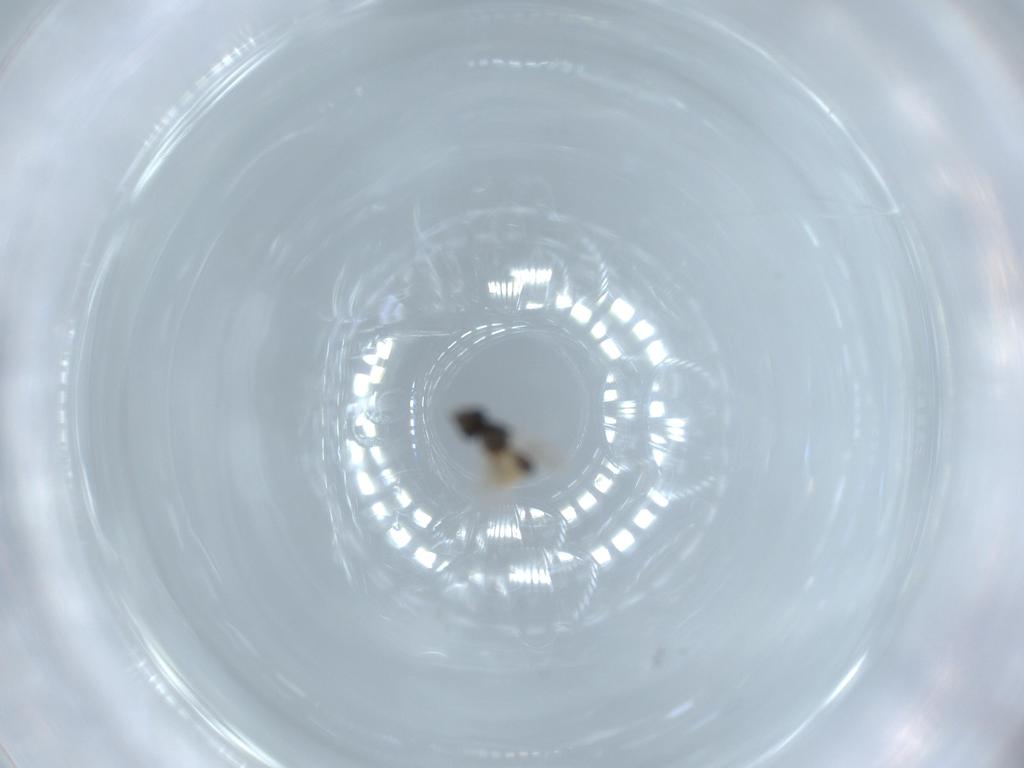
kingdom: Animalia
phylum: Arthropoda
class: Insecta
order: Hymenoptera
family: Scelionidae
